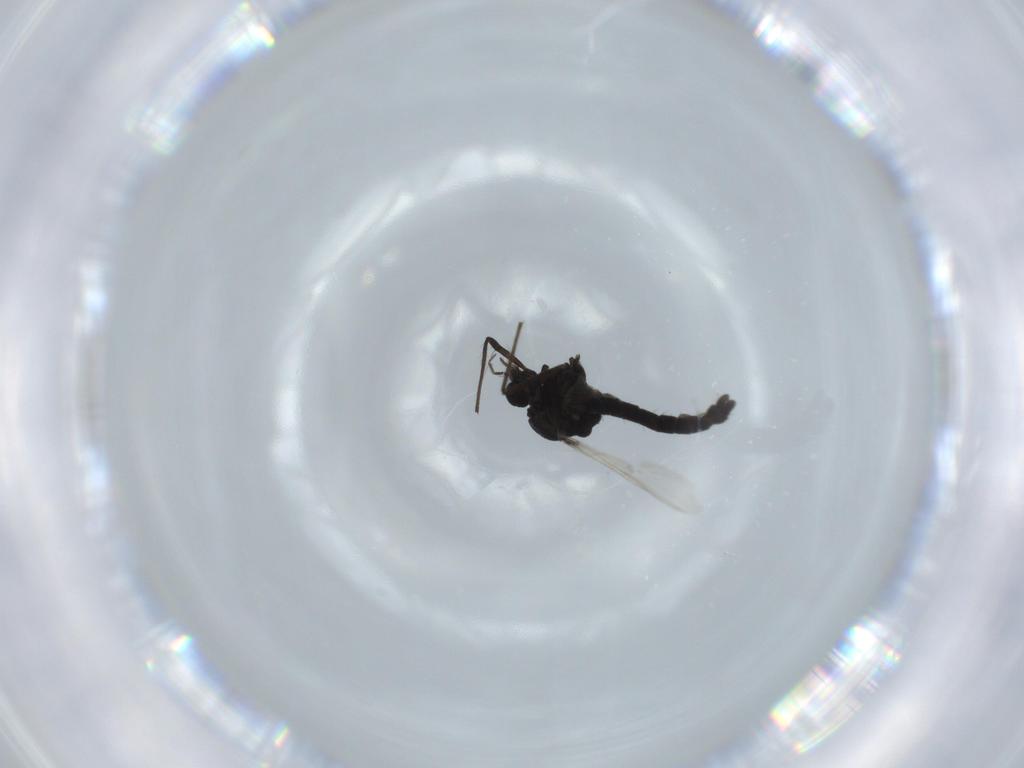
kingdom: Animalia
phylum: Arthropoda
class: Insecta
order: Diptera
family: Chironomidae
